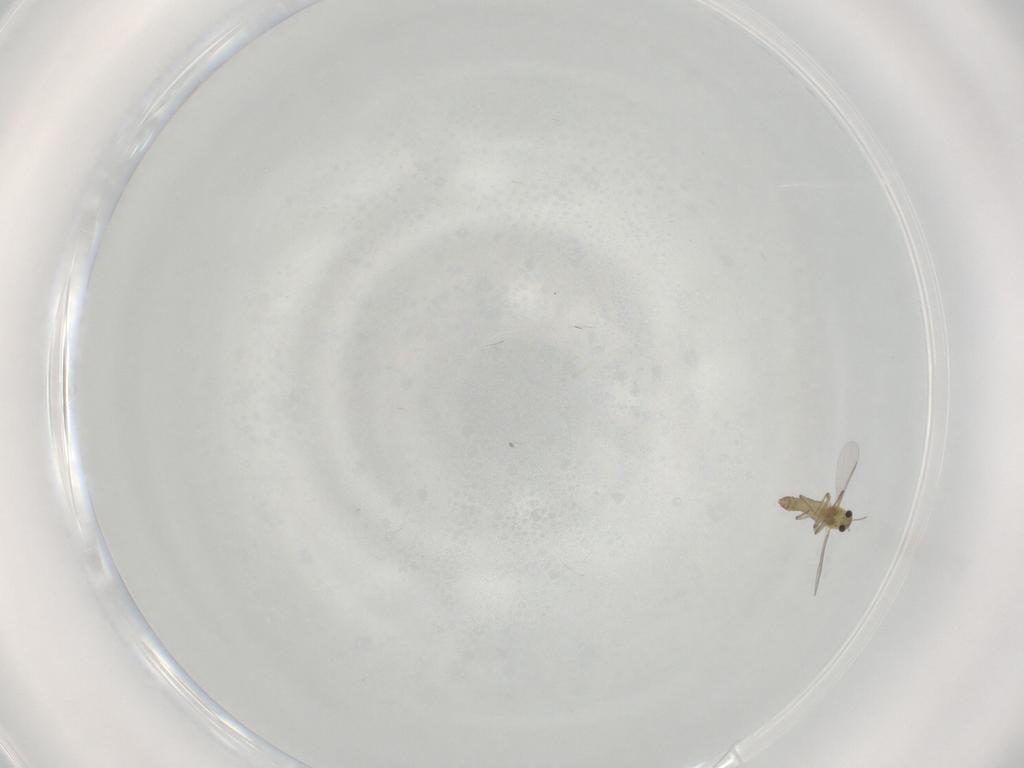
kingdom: Animalia
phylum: Arthropoda
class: Insecta
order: Diptera
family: Chironomidae
